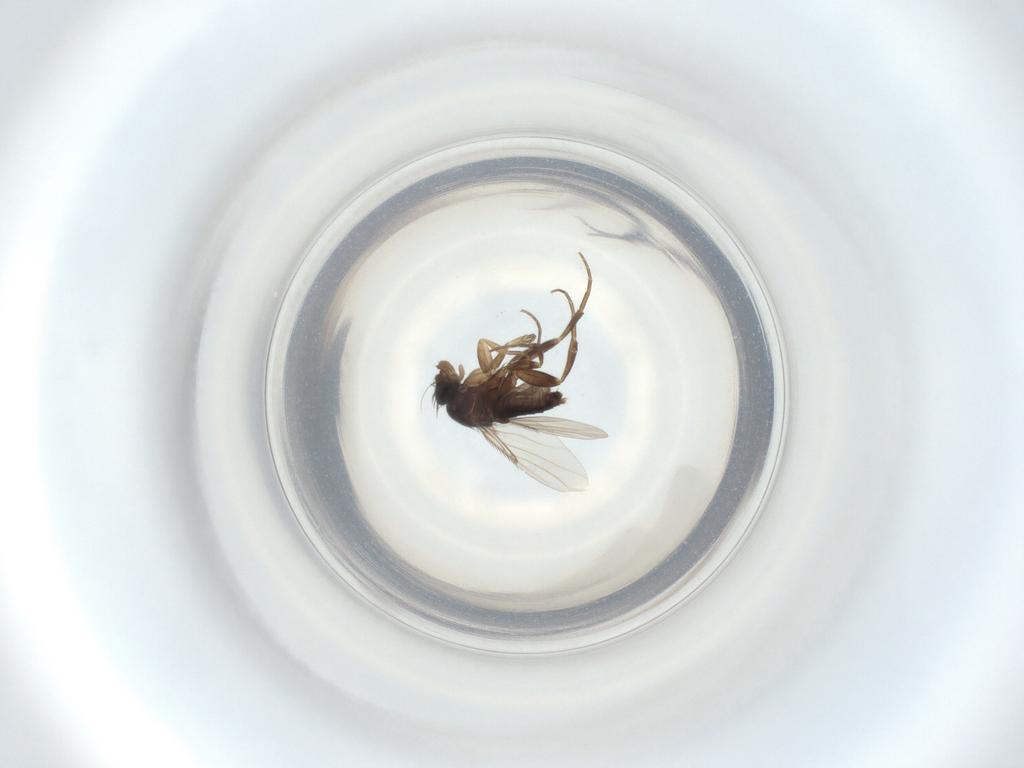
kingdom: Animalia
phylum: Arthropoda
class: Insecta
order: Diptera
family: Phoridae
